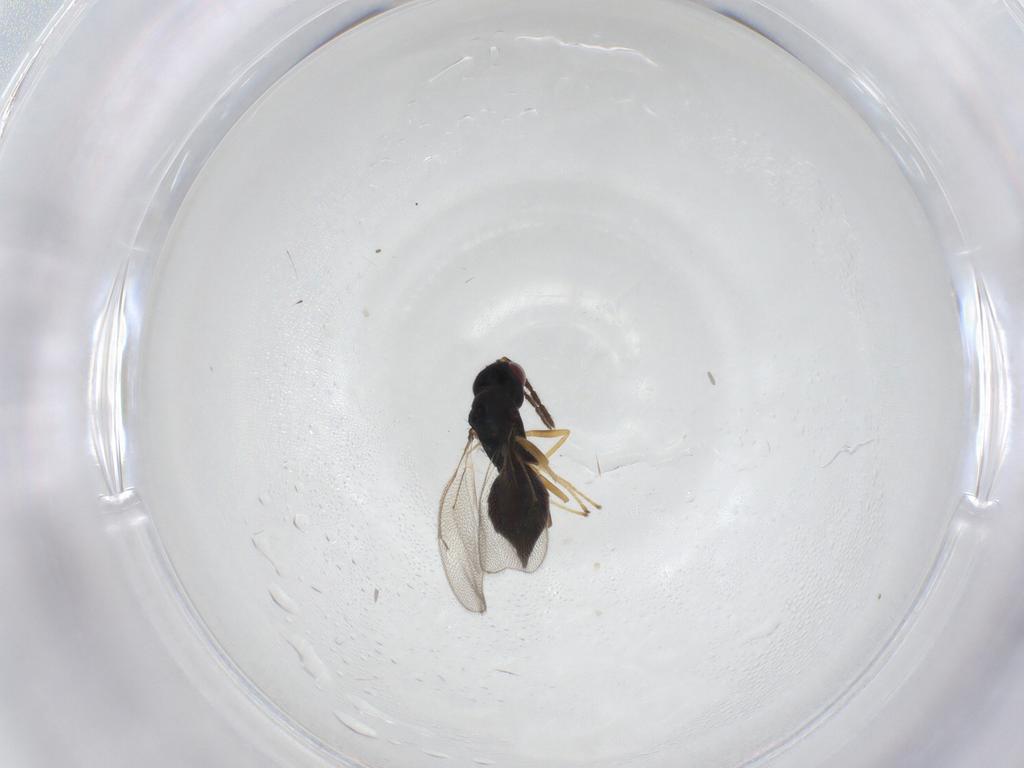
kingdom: Animalia
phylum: Arthropoda
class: Insecta
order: Hymenoptera
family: Eulophidae
